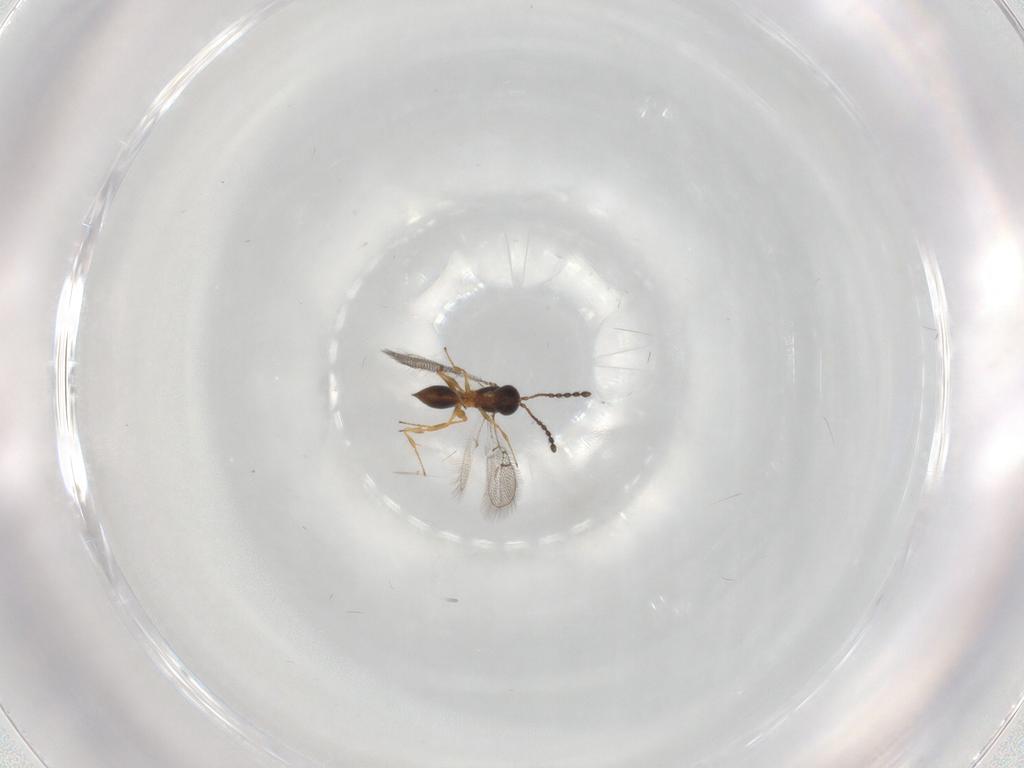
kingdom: Animalia
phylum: Arthropoda
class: Insecta
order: Hymenoptera
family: Figitidae
